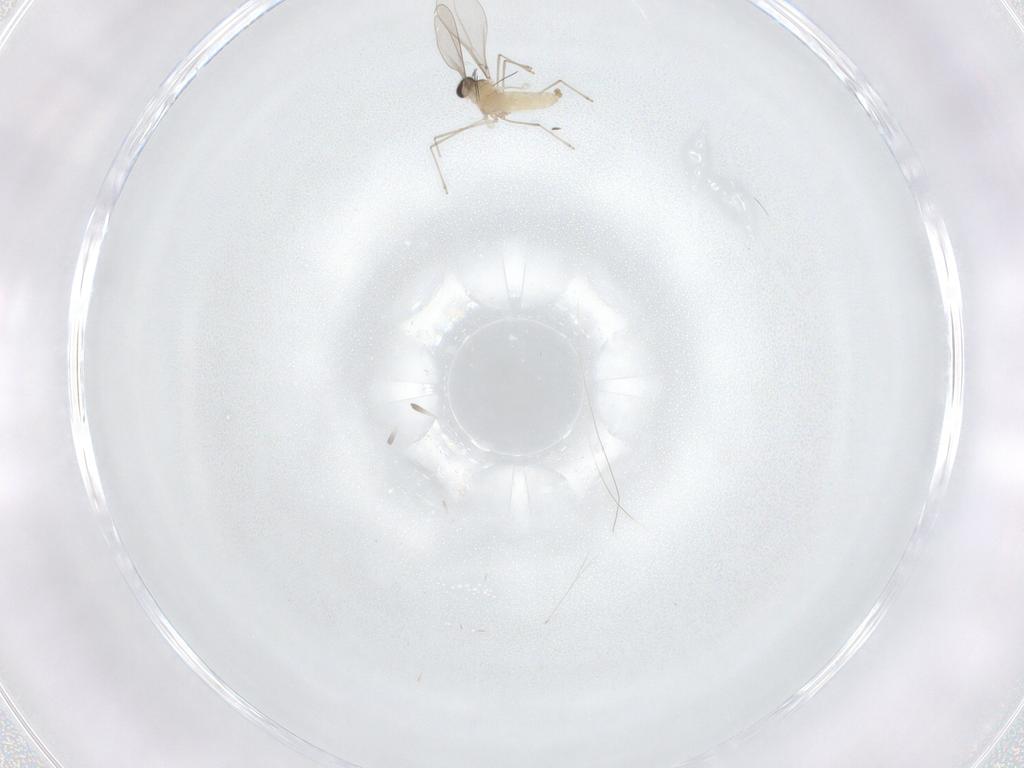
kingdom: Animalia
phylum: Arthropoda
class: Insecta
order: Diptera
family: Cecidomyiidae
